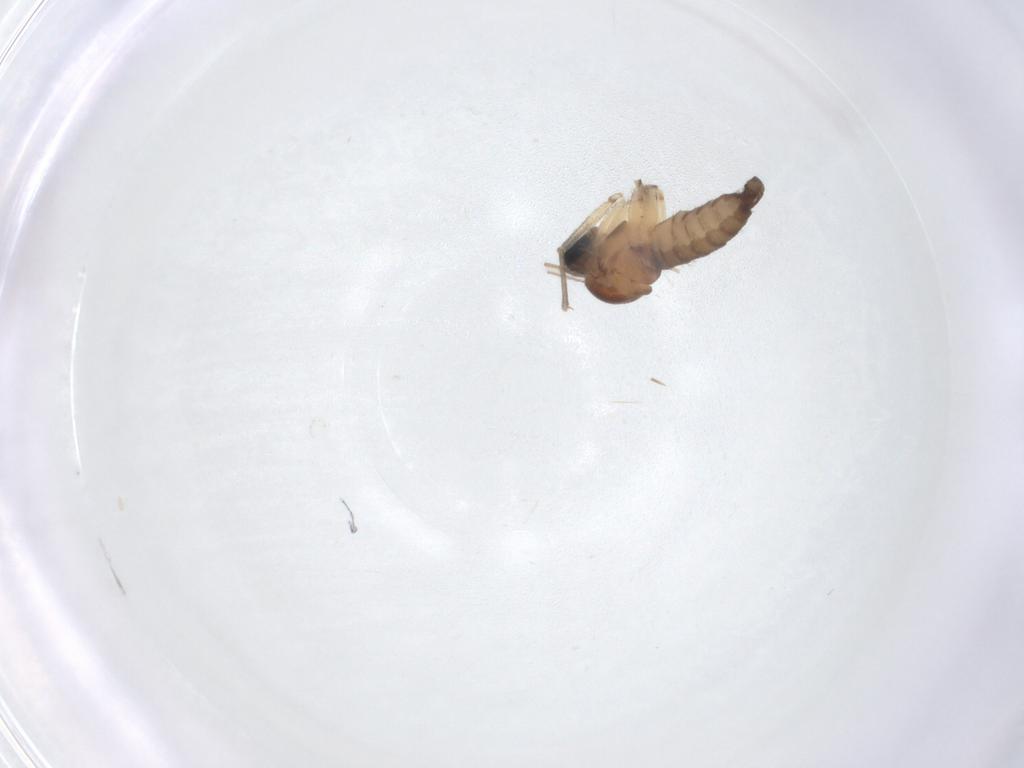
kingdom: Animalia
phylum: Arthropoda
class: Insecta
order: Diptera
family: Sciaridae
